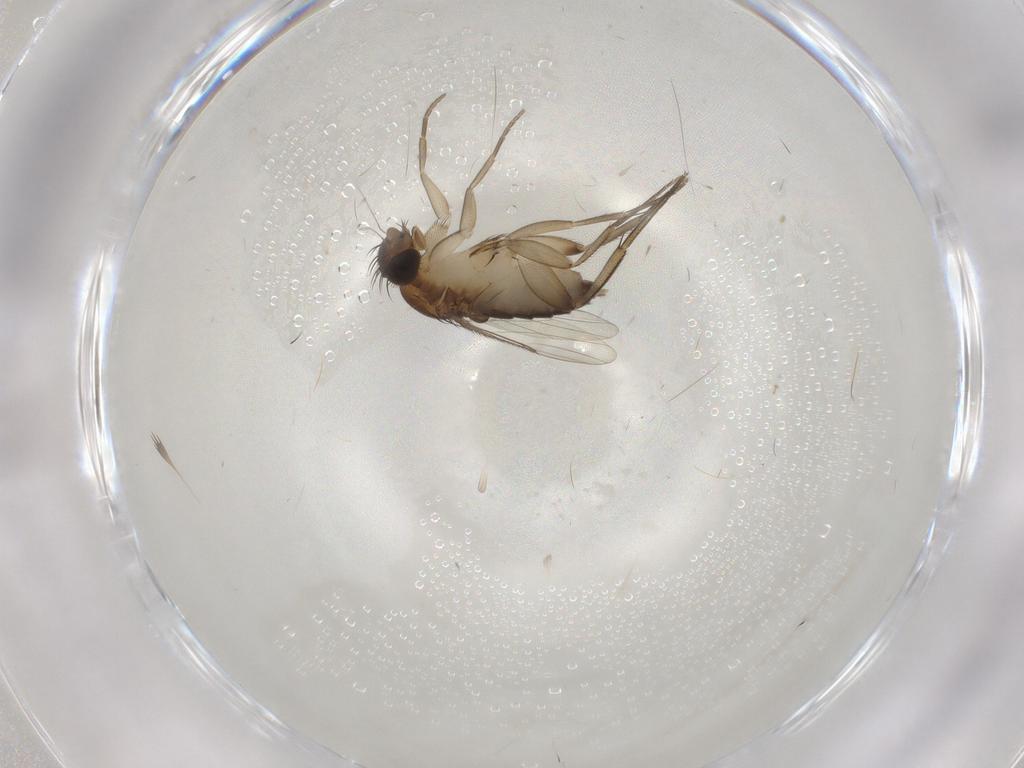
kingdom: Animalia
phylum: Arthropoda
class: Insecta
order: Diptera
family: Phoridae
